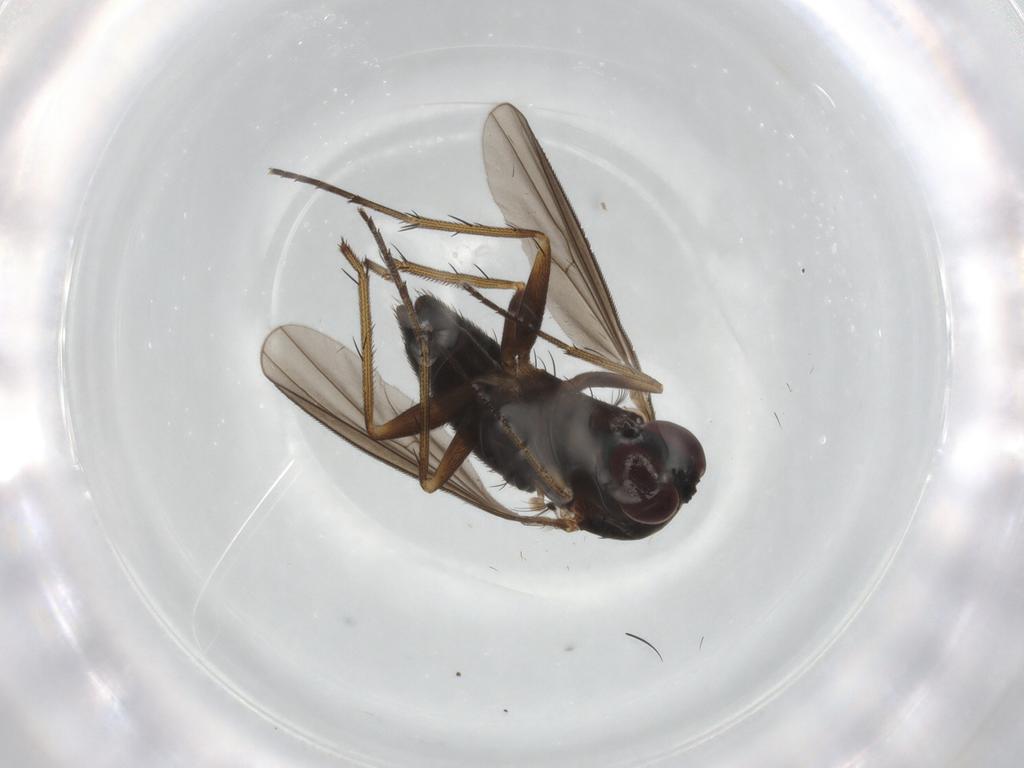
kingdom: Animalia
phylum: Arthropoda
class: Insecta
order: Diptera
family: Dolichopodidae
